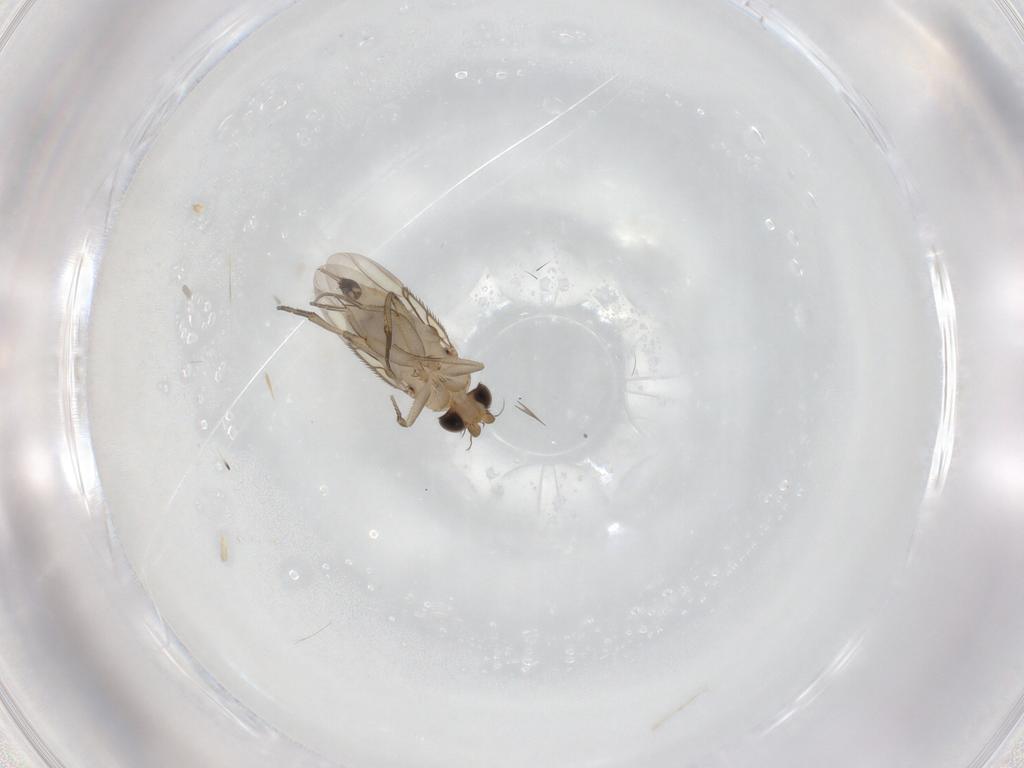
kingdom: Animalia
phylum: Arthropoda
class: Insecta
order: Diptera
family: Phoridae
